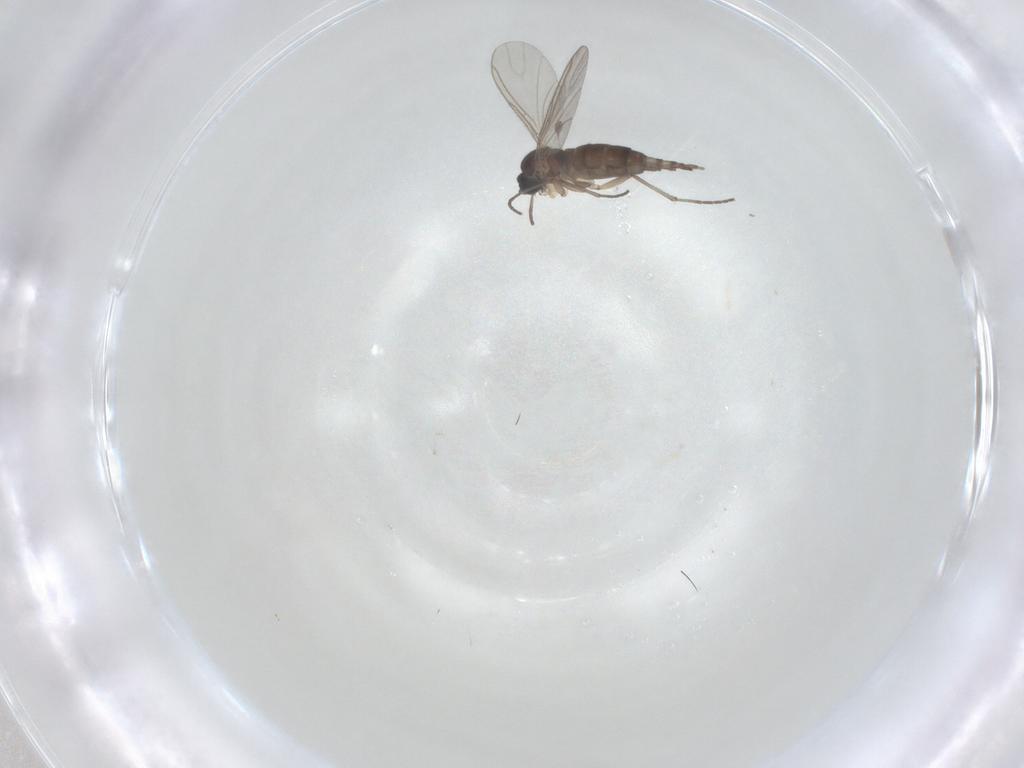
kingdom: Animalia
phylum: Arthropoda
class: Insecta
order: Diptera
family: Sciaridae
